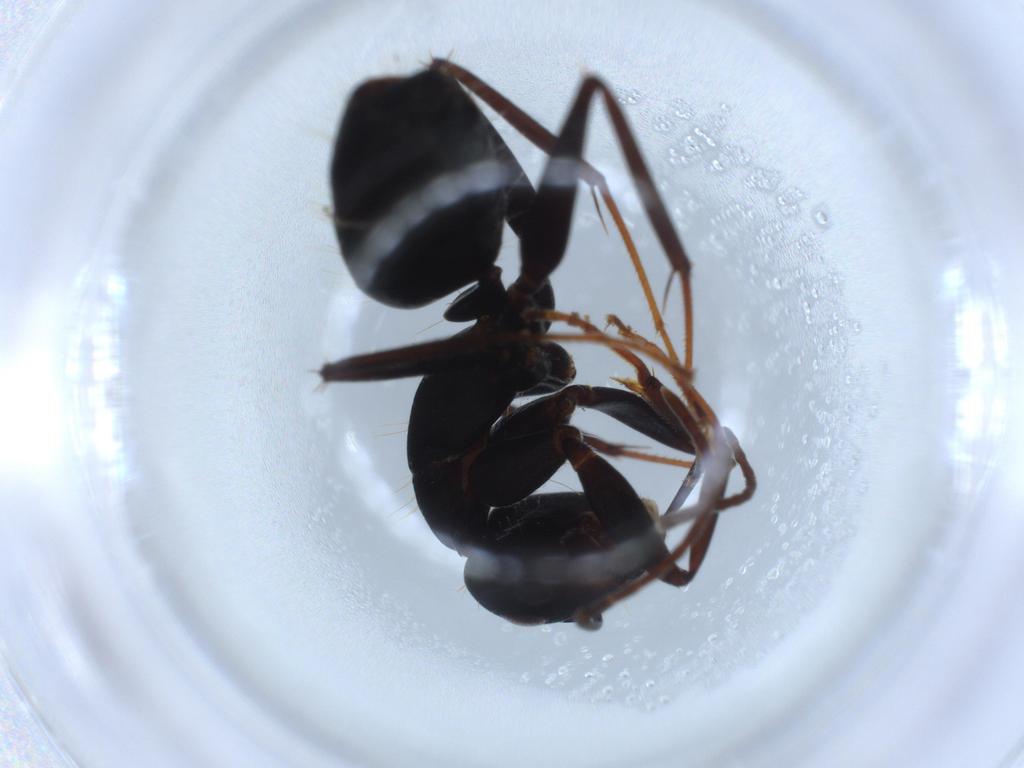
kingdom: Animalia
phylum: Arthropoda
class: Insecta
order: Hymenoptera
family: Formicidae
